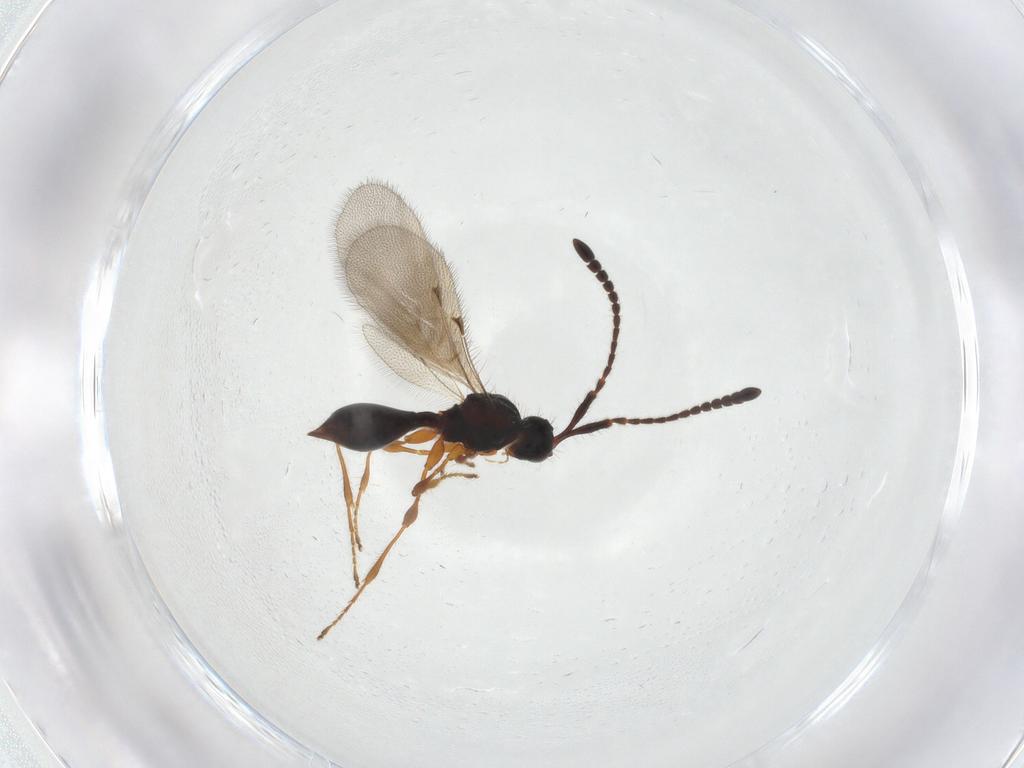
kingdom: Animalia
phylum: Arthropoda
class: Insecta
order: Hymenoptera
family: Diapriidae
